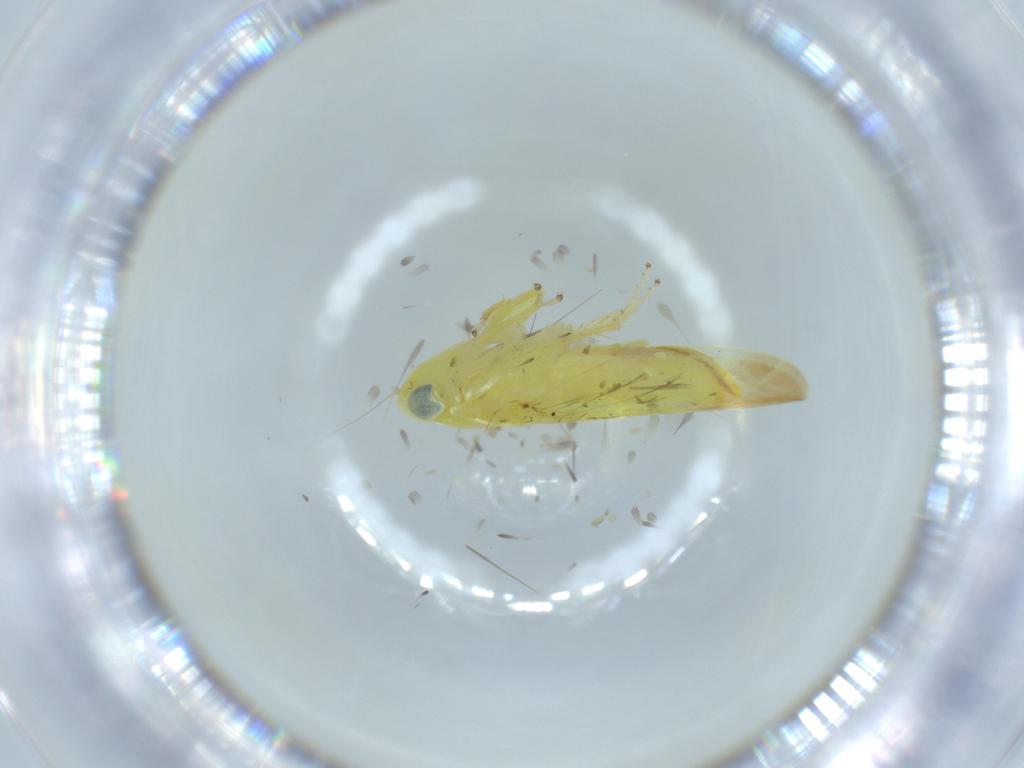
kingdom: Animalia
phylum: Arthropoda
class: Insecta
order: Hemiptera
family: Cicadellidae
